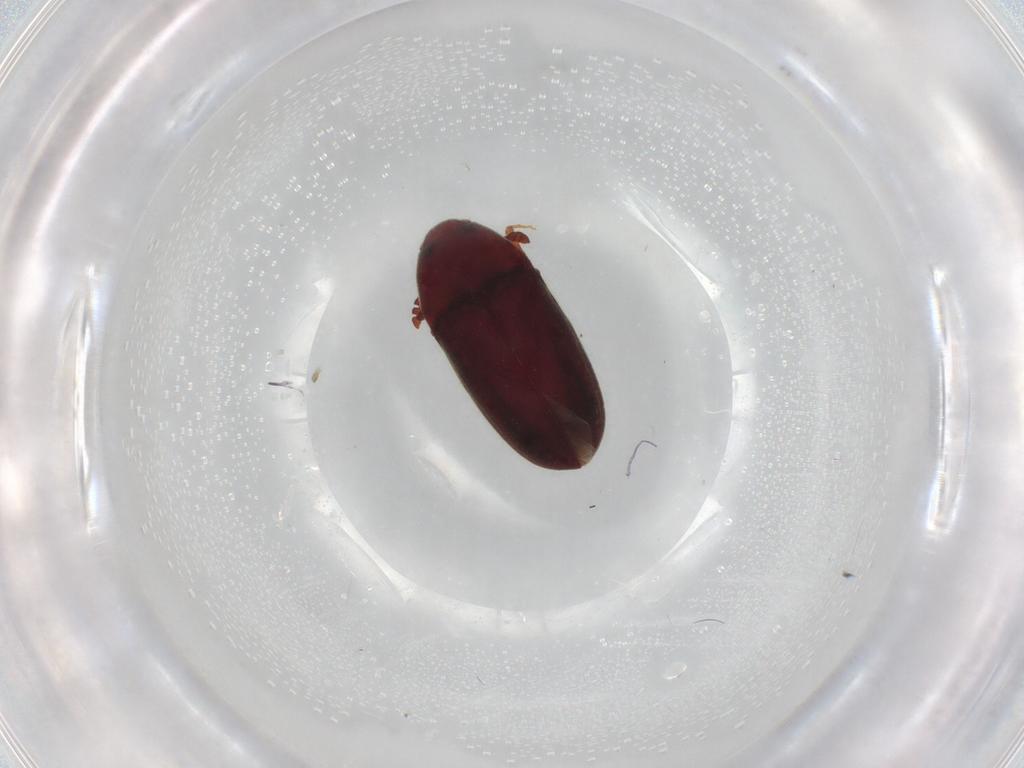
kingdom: Animalia
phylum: Arthropoda
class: Insecta
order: Coleoptera
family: Throscidae
